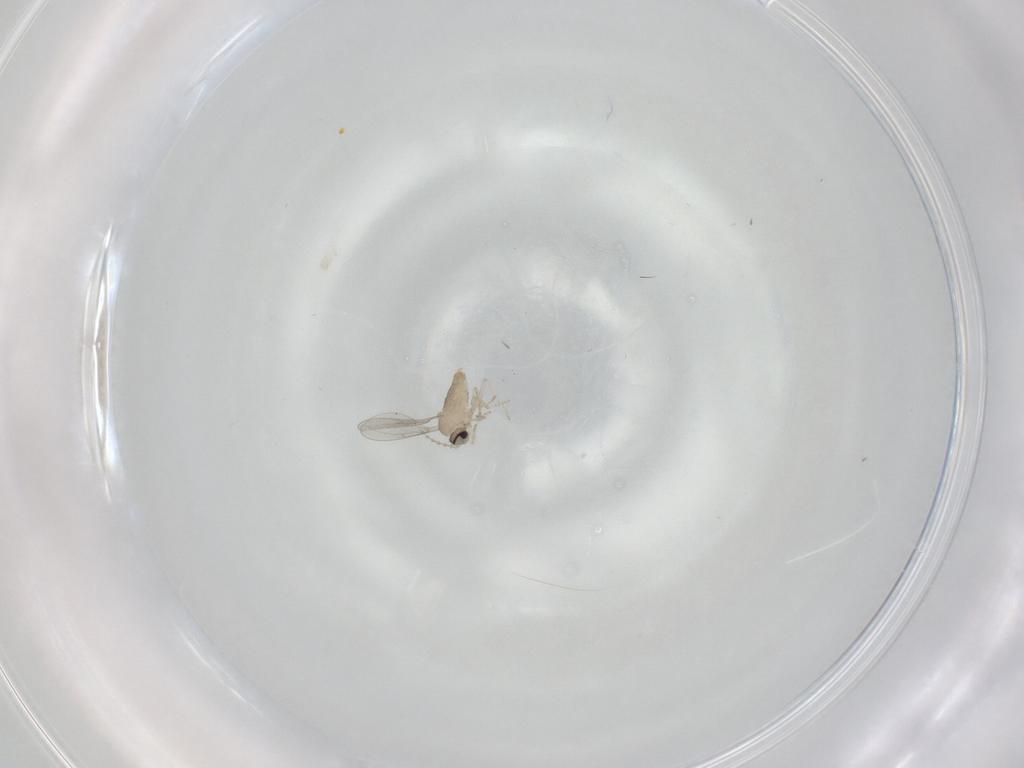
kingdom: Animalia
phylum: Arthropoda
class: Insecta
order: Diptera
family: Cecidomyiidae
